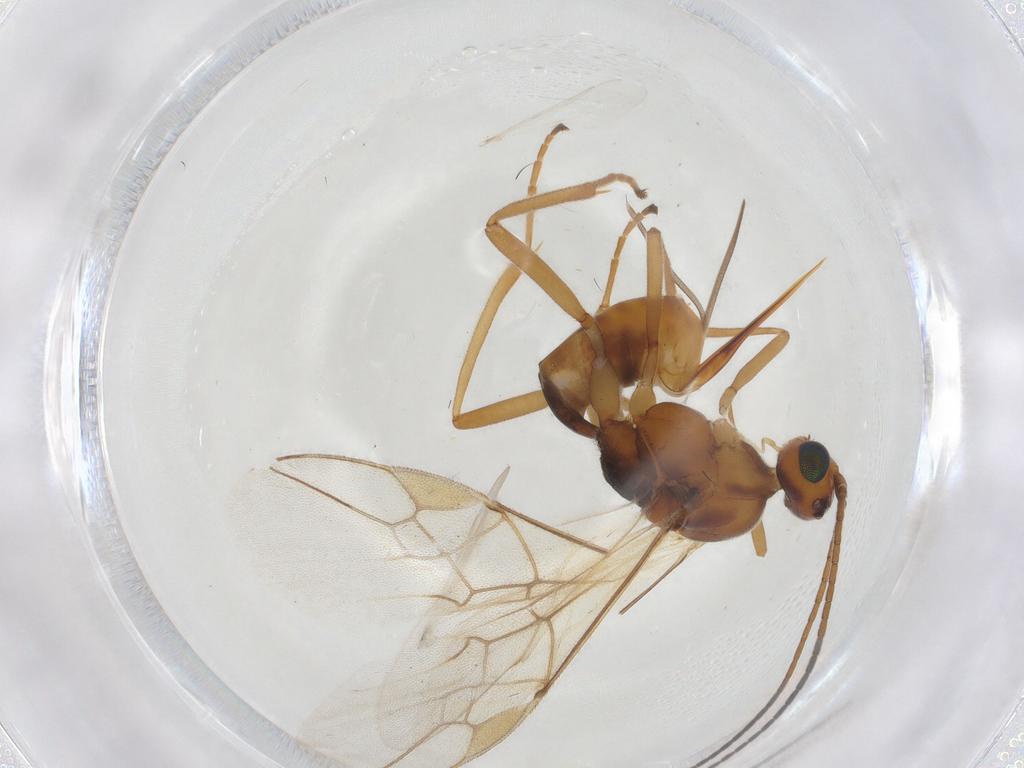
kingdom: Animalia
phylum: Arthropoda
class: Insecta
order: Hymenoptera
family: Braconidae
